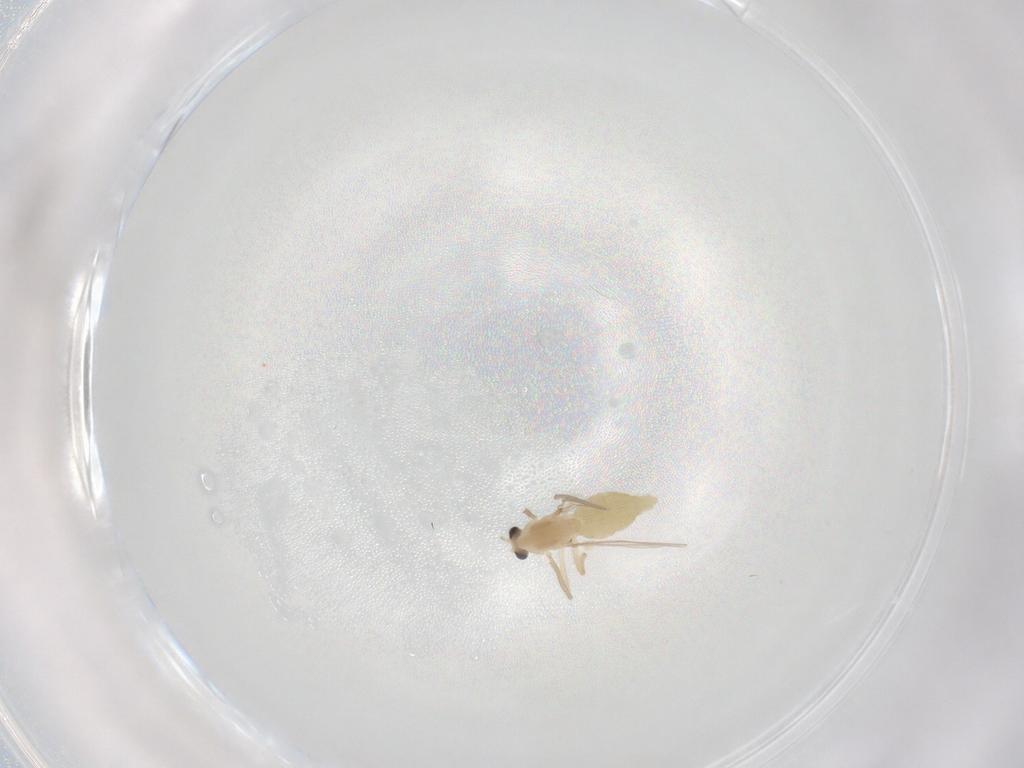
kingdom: Animalia
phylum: Arthropoda
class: Insecta
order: Diptera
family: Chironomidae
